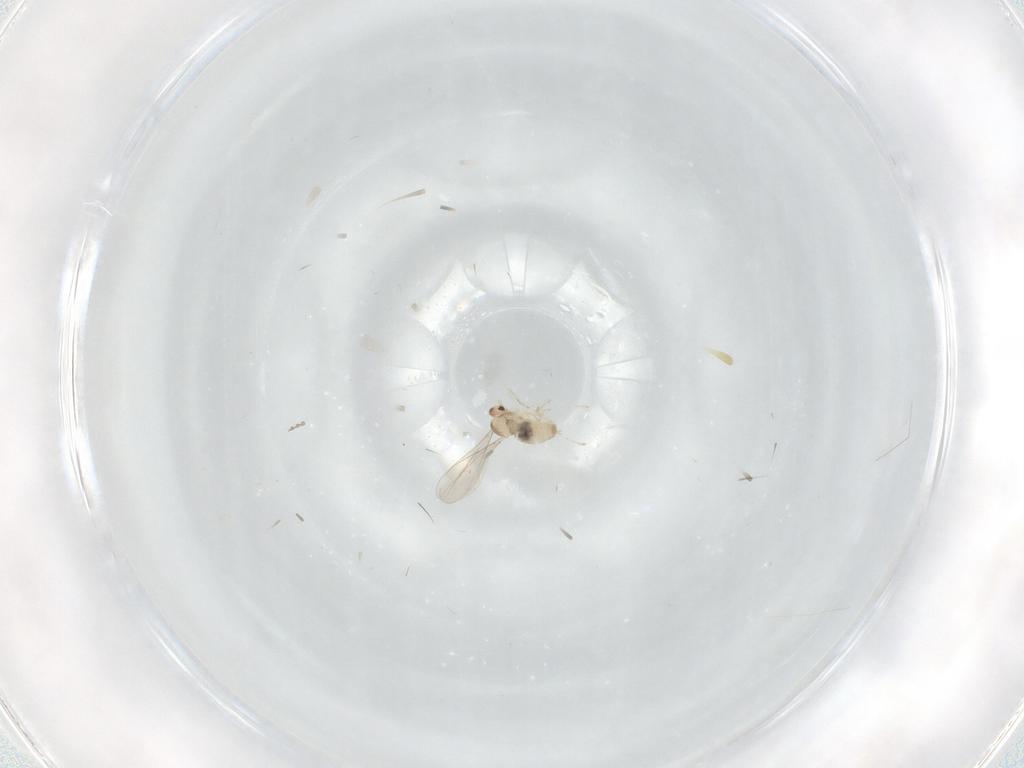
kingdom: Animalia
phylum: Arthropoda
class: Insecta
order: Diptera
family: Cecidomyiidae
